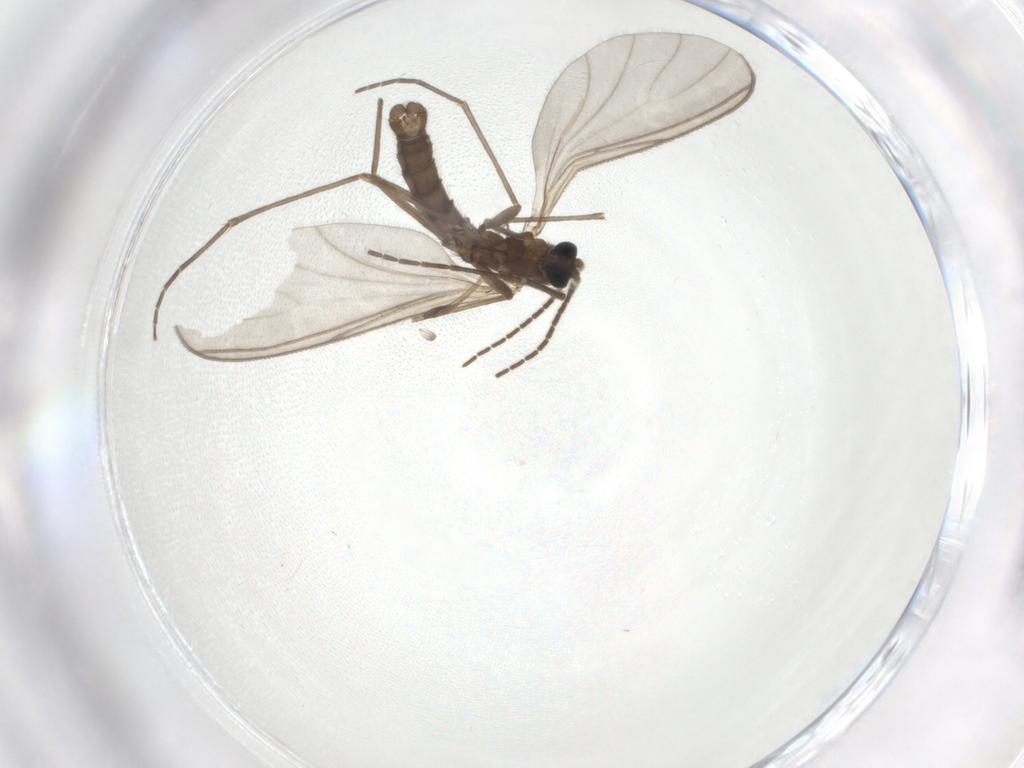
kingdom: Animalia
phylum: Arthropoda
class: Insecta
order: Diptera
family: Sciaridae
